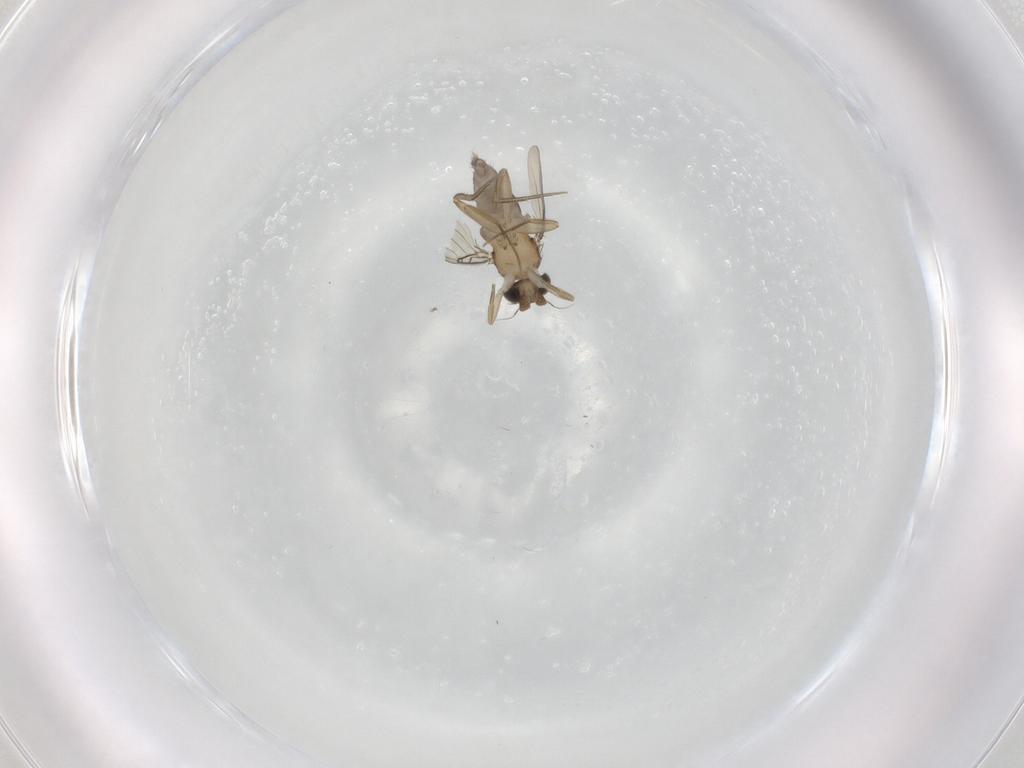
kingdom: Animalia
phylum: Arthropoda
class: Insecta
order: Diptera
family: Phoridae
